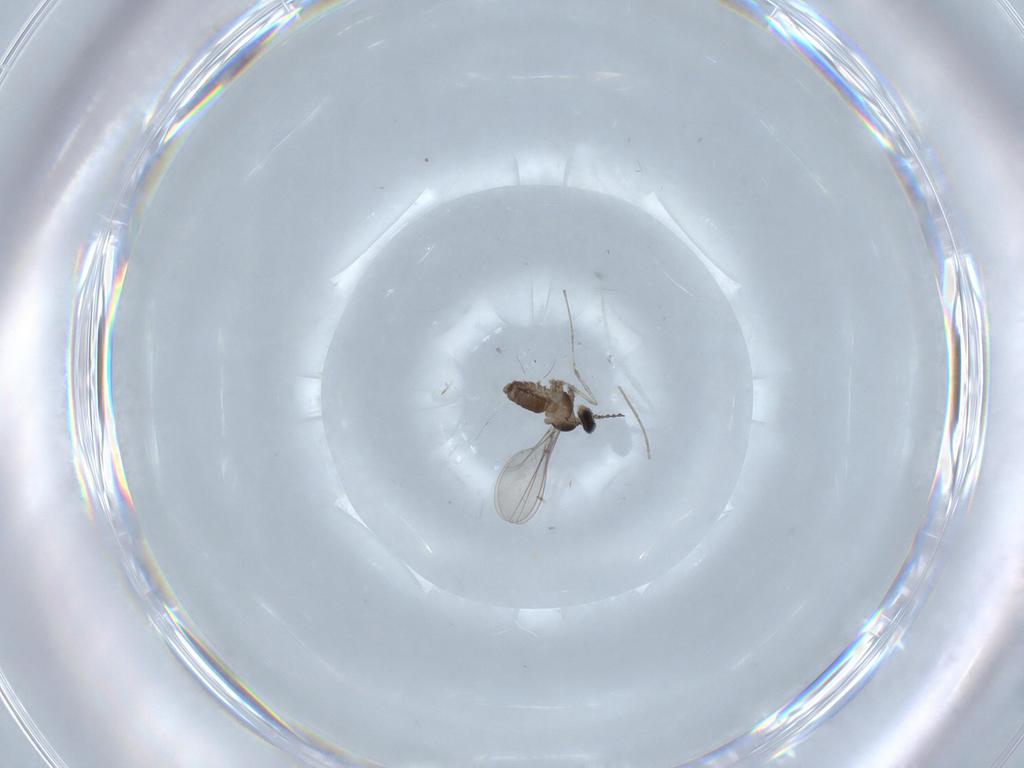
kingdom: Animalia
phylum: Arthropoda
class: Insecta
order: Diptera
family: Cecidomyiidae
